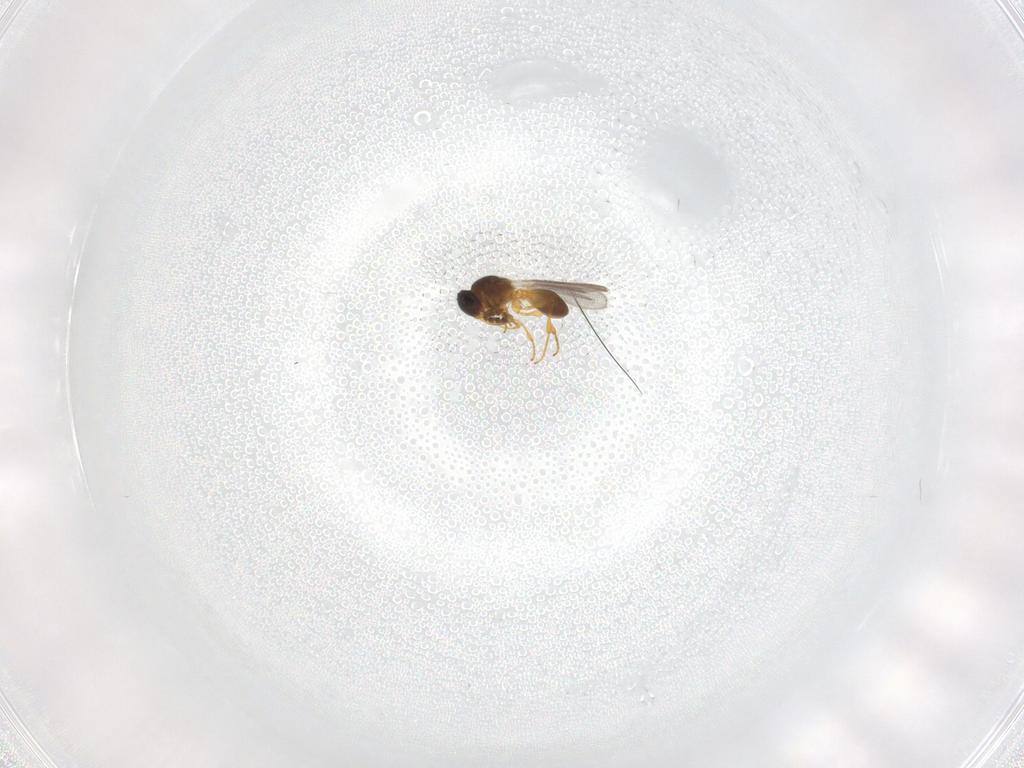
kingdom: Animalia
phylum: Arthropoda
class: Insecta
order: Hymenoptera
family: Platygastridae
